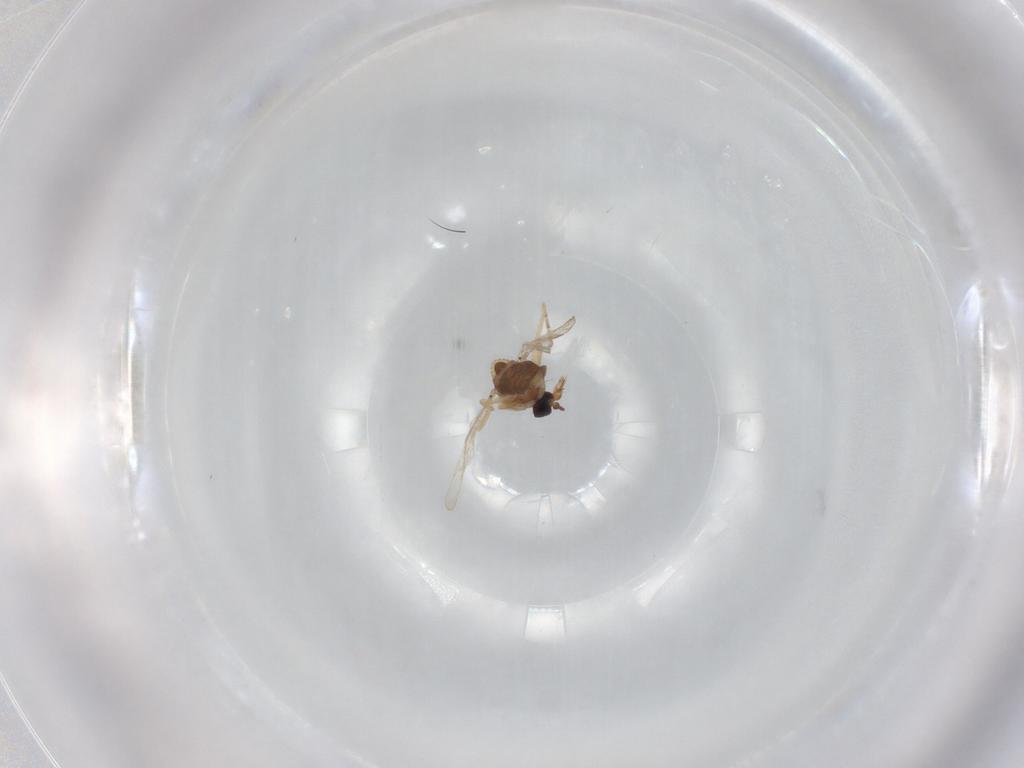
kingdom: Animalia
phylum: Arthropoda
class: Insecta
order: Diptera
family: Ceratopogonidae
